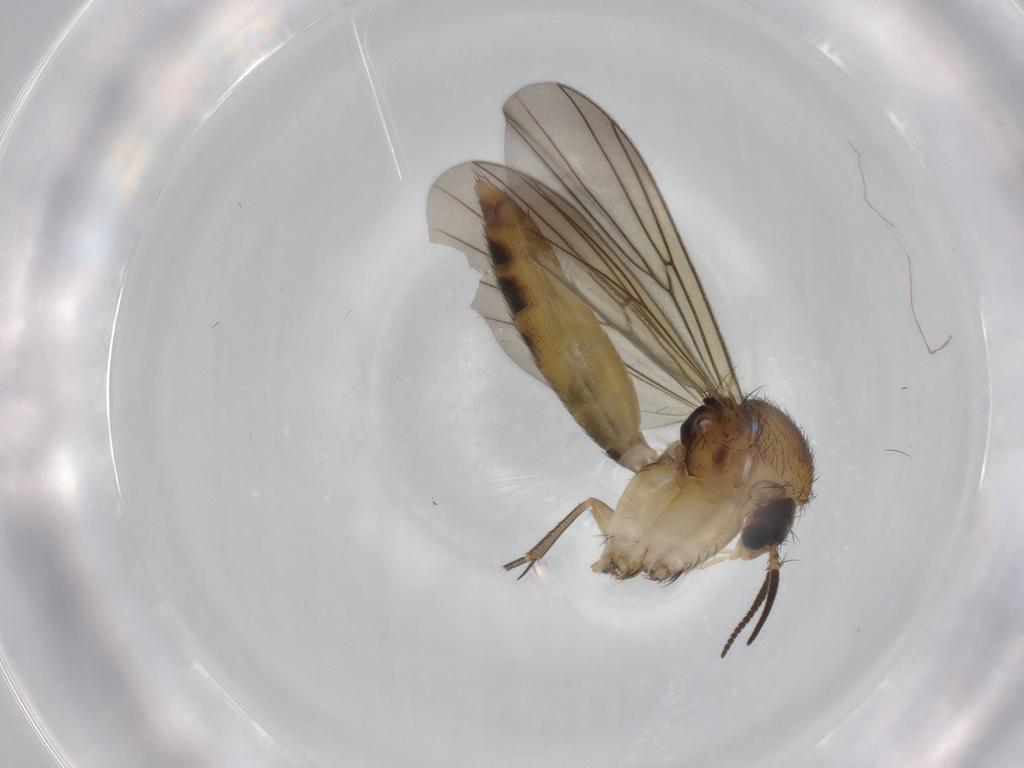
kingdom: Animalia
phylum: Arthropoda
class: Insecta
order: Diptera
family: Mycetophilidae
